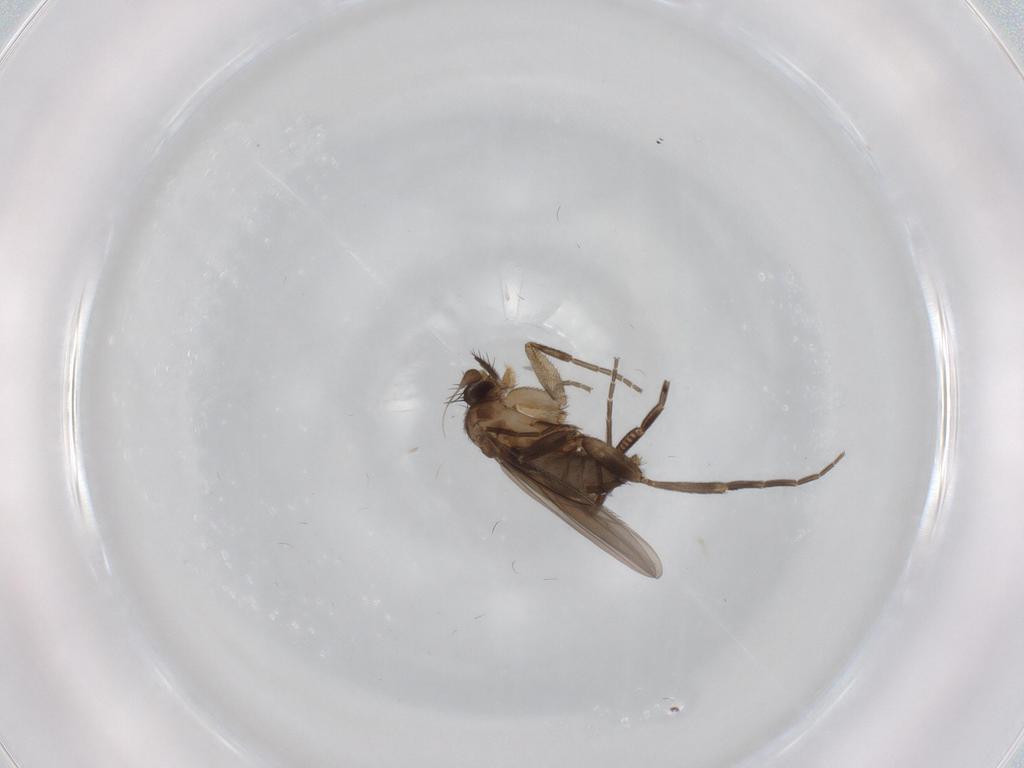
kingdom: Animalia
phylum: Arthropoda
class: Insecta
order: Diptera
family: Phoridae
